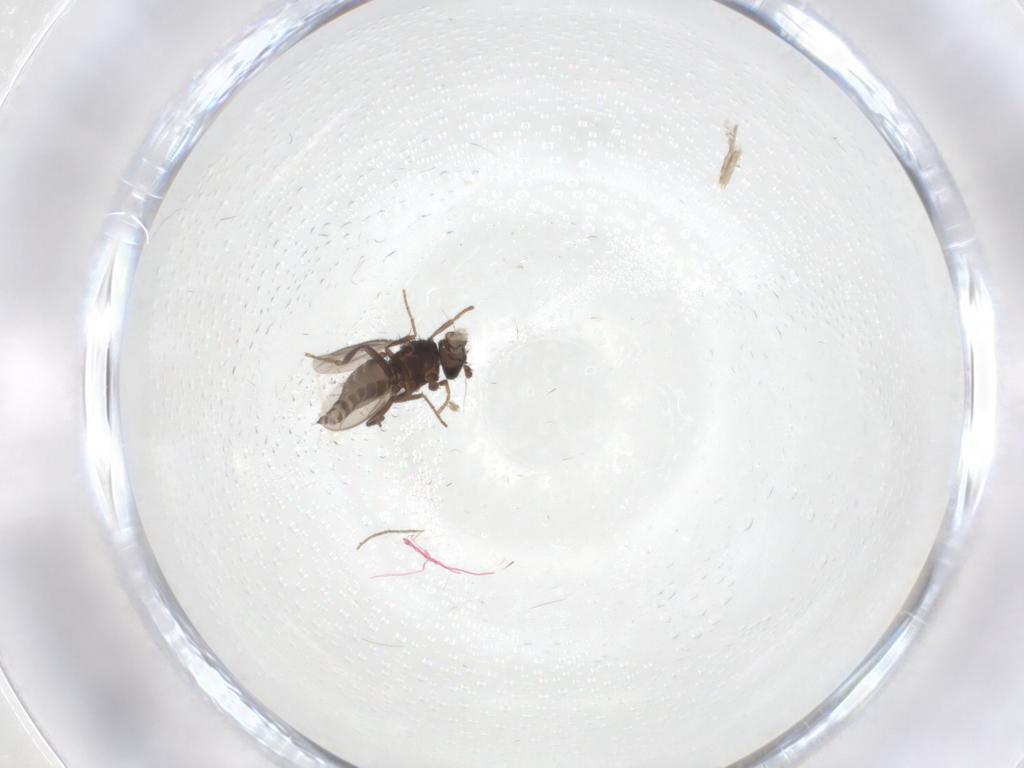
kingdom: Animalia
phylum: Arthropoda
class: Insecta
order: Diptera
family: Chironomidae
